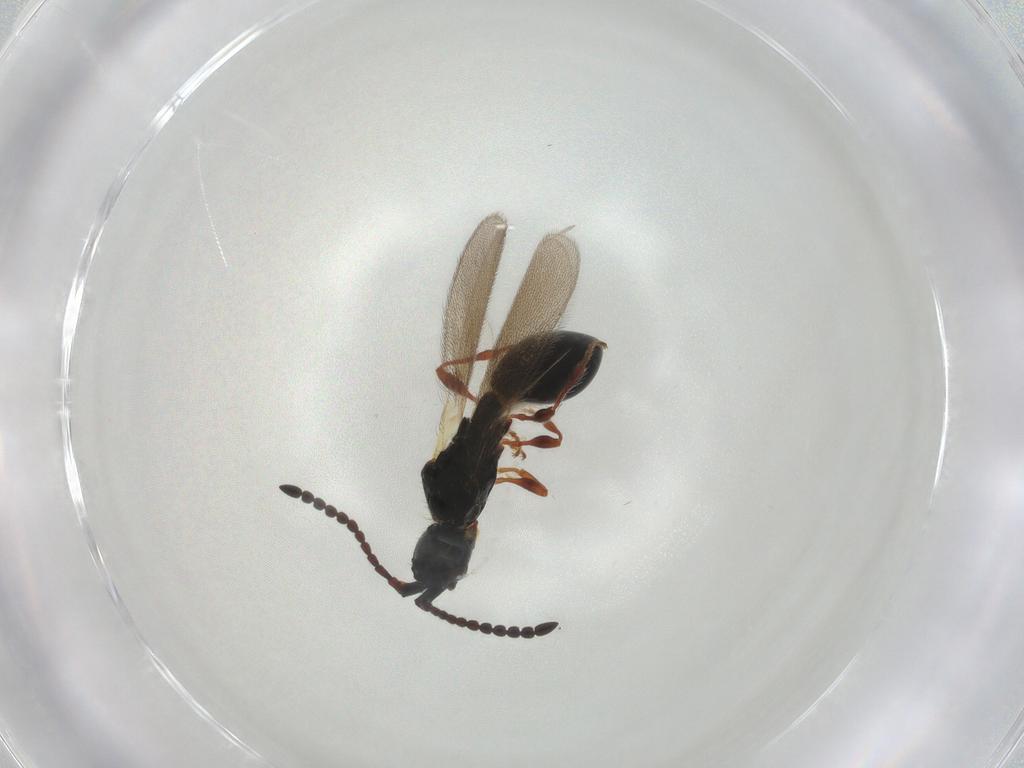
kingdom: Animalia
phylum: Arthropoda
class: Insecta
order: Hymenoptera
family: Diapriidae
